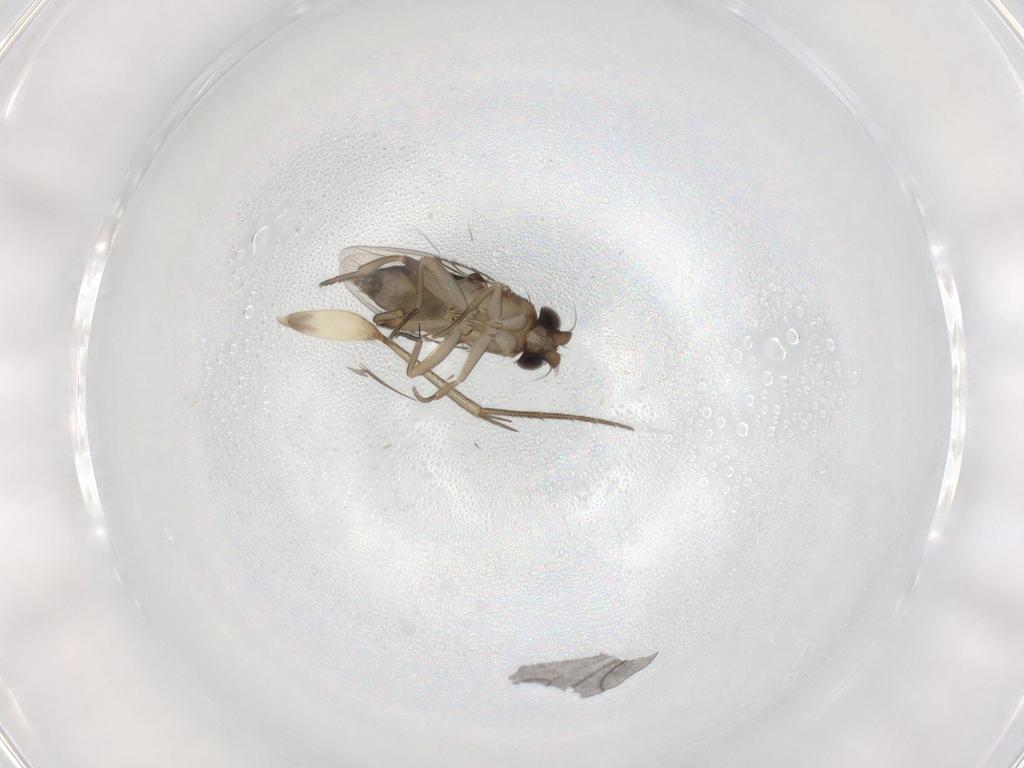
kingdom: Animalia
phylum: Arthropoda
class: Insecta
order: Diptera
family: Phoridae
